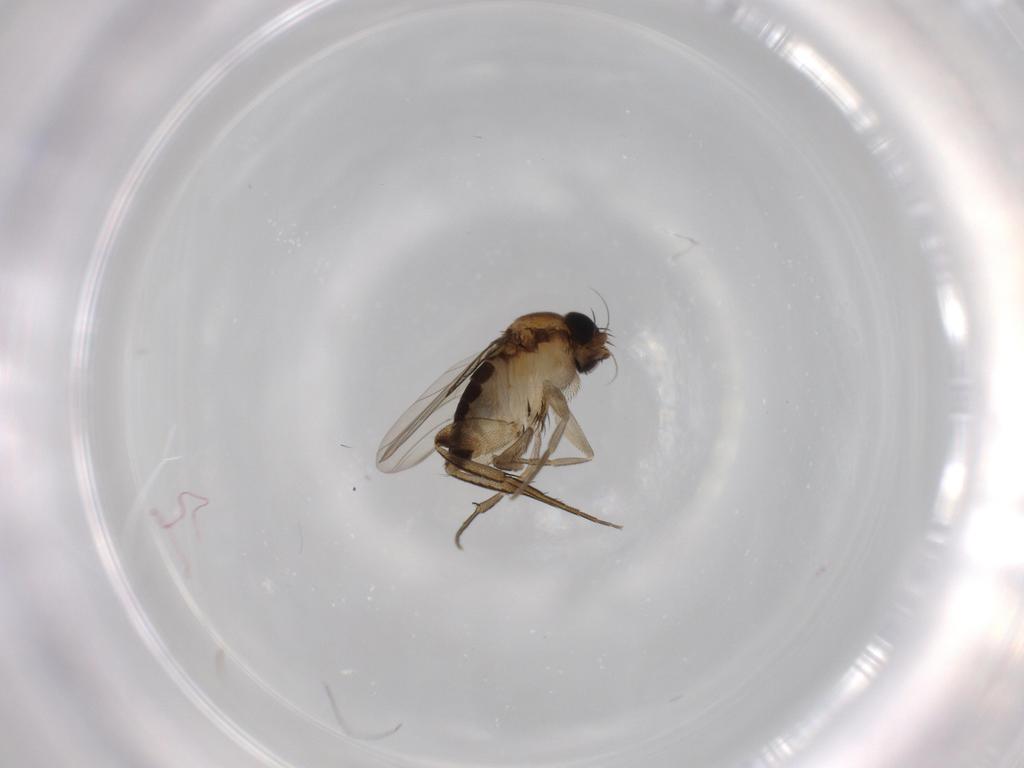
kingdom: Animalia
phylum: Arthropoda
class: Insecta
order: Diptera
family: Phoridae
